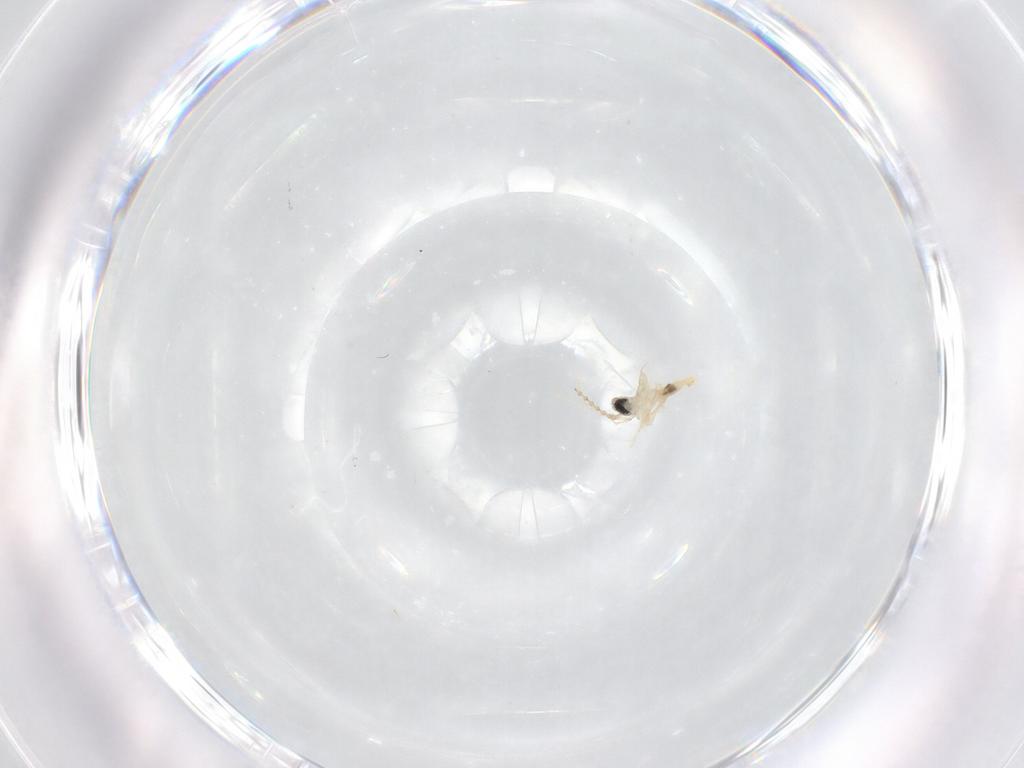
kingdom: Animalia
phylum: Arthropoda
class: Insecta
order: Diptera
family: Cecidomyiidae
